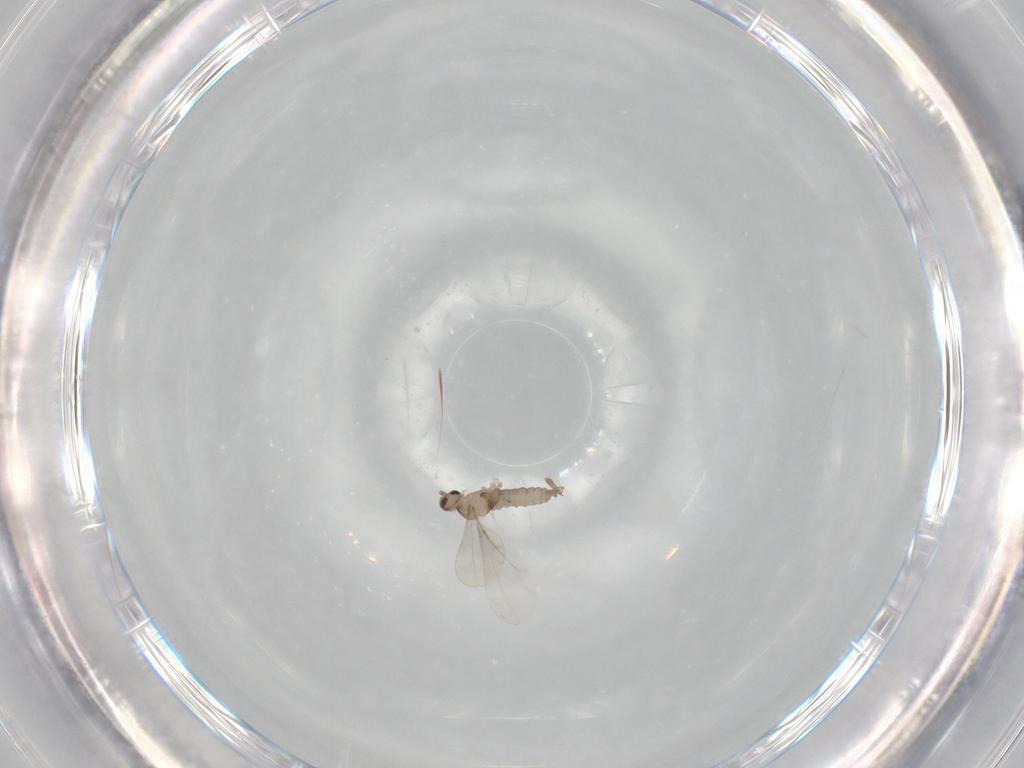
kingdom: Animalia
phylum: Arthropoda
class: Insecta
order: Diptera
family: Cecidomyiidae
